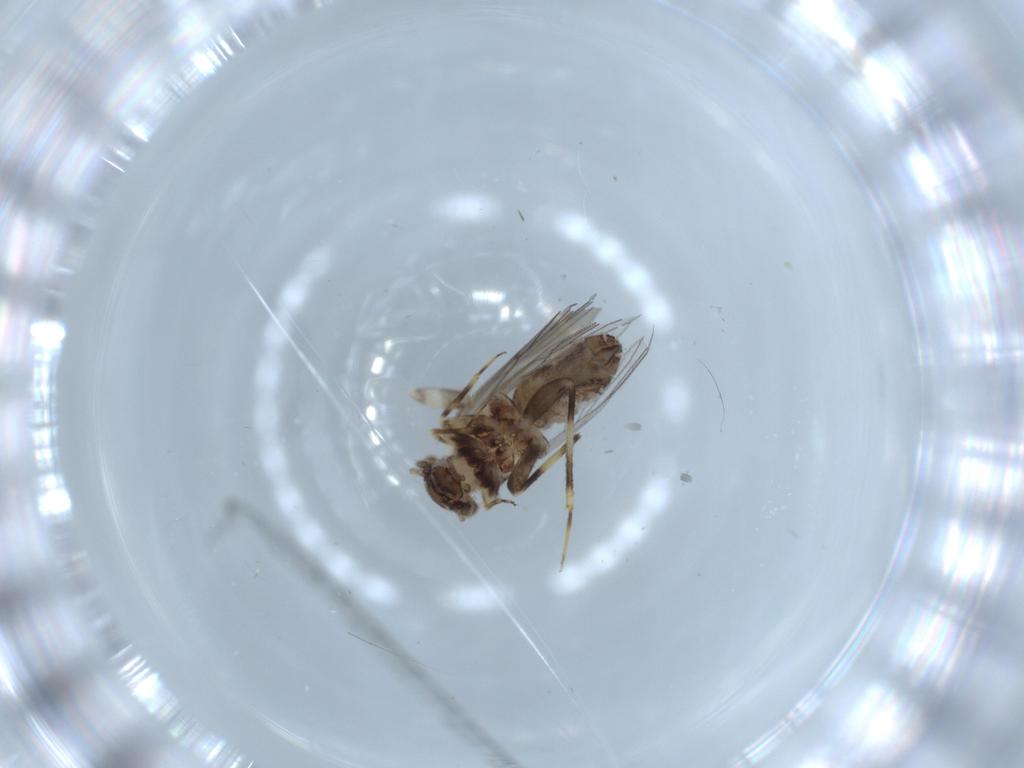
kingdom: Animalia
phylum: Arthropoda
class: Insecta
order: Psocodea
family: Lepidopsocidae
